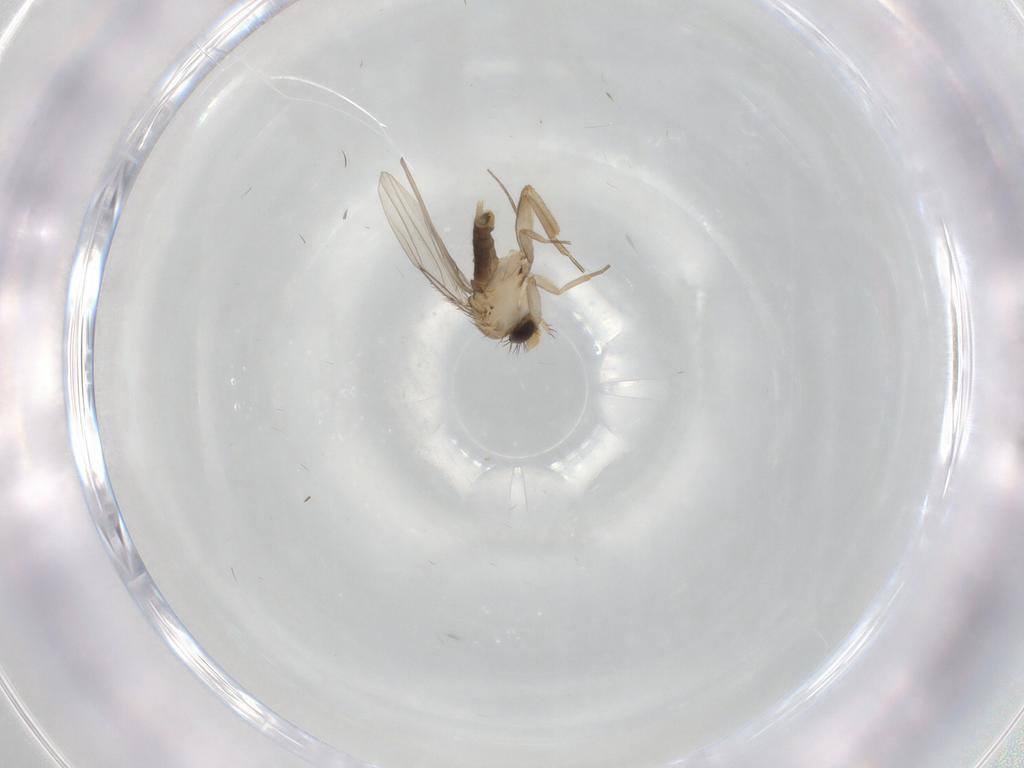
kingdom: Animalia
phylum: Arthropoda
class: Insecta
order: Diptera
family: Phoridae
